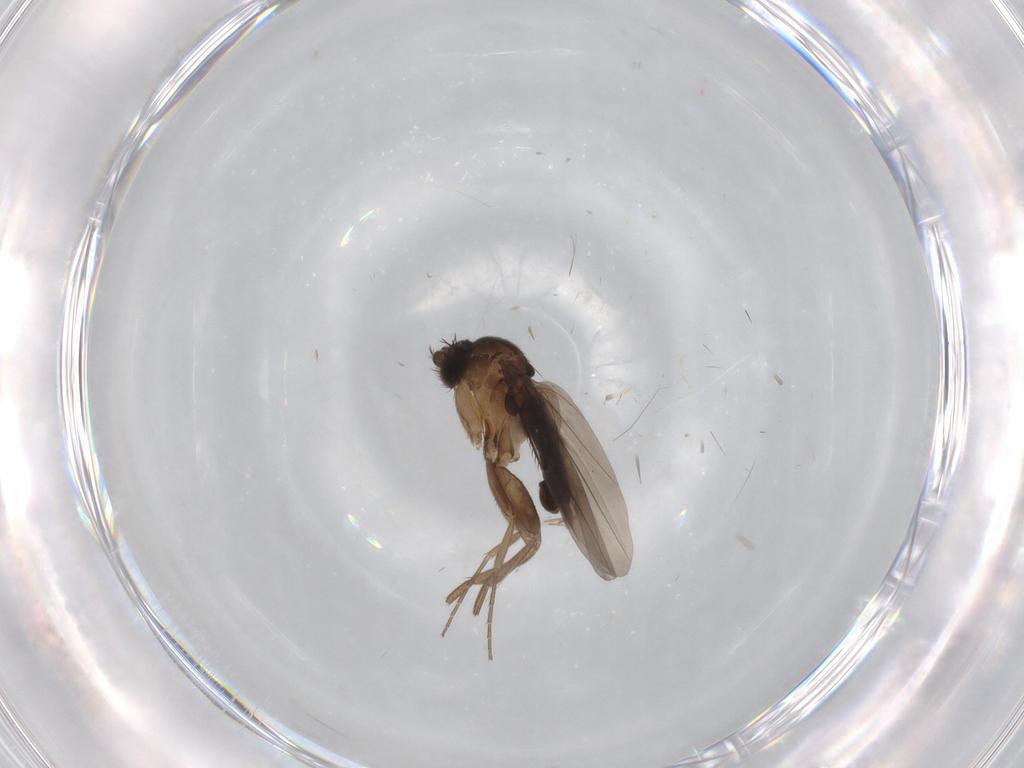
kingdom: Animalia
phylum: Arthropoda
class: Insecta
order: Diptera
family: Phoridae
